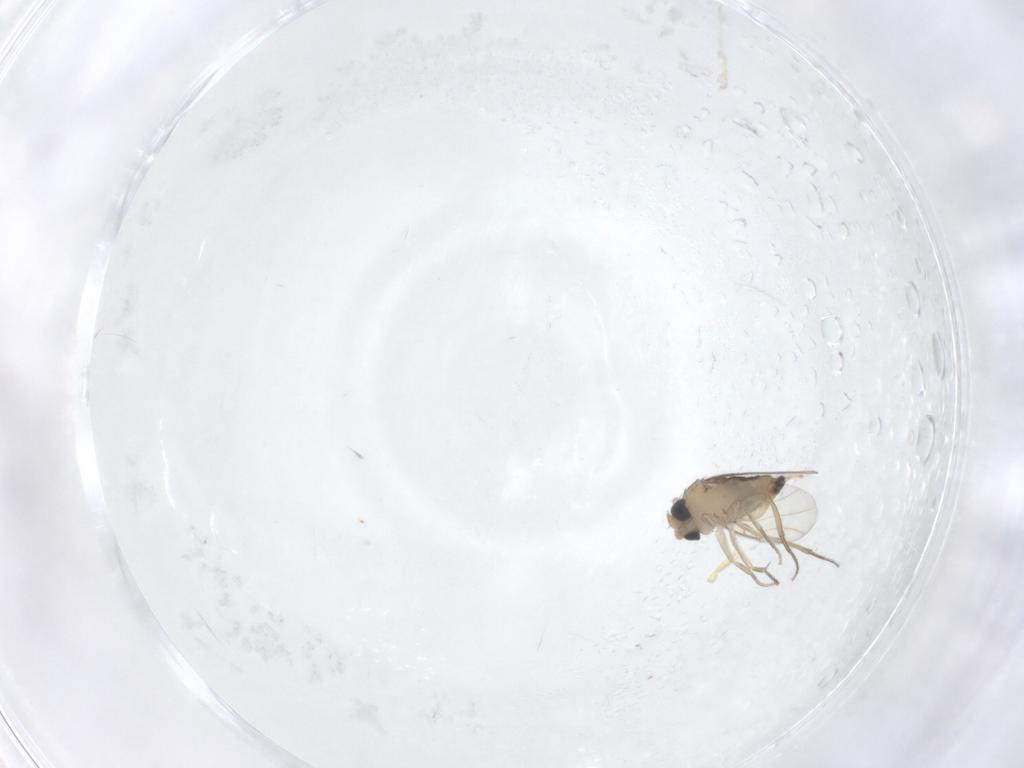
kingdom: Animalia
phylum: Arthropoda
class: Insecta
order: Diptera
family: Phoridae
